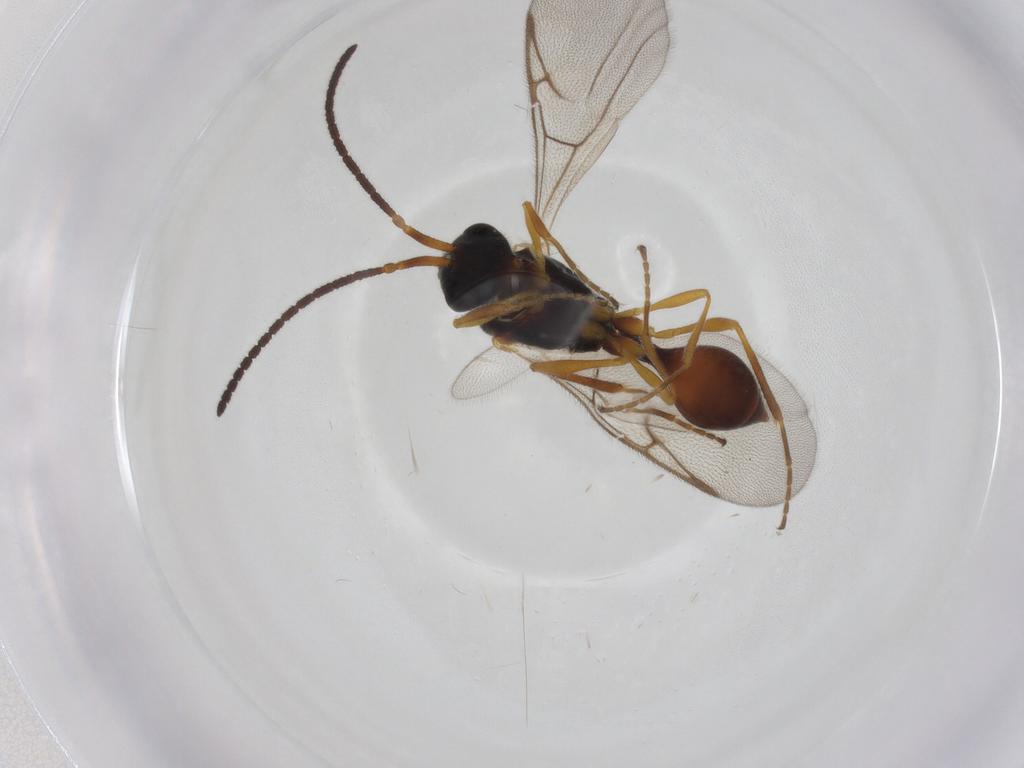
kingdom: Animalia
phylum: Arthropoda
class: Insecta
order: Hymenoptera
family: Diapriidae
